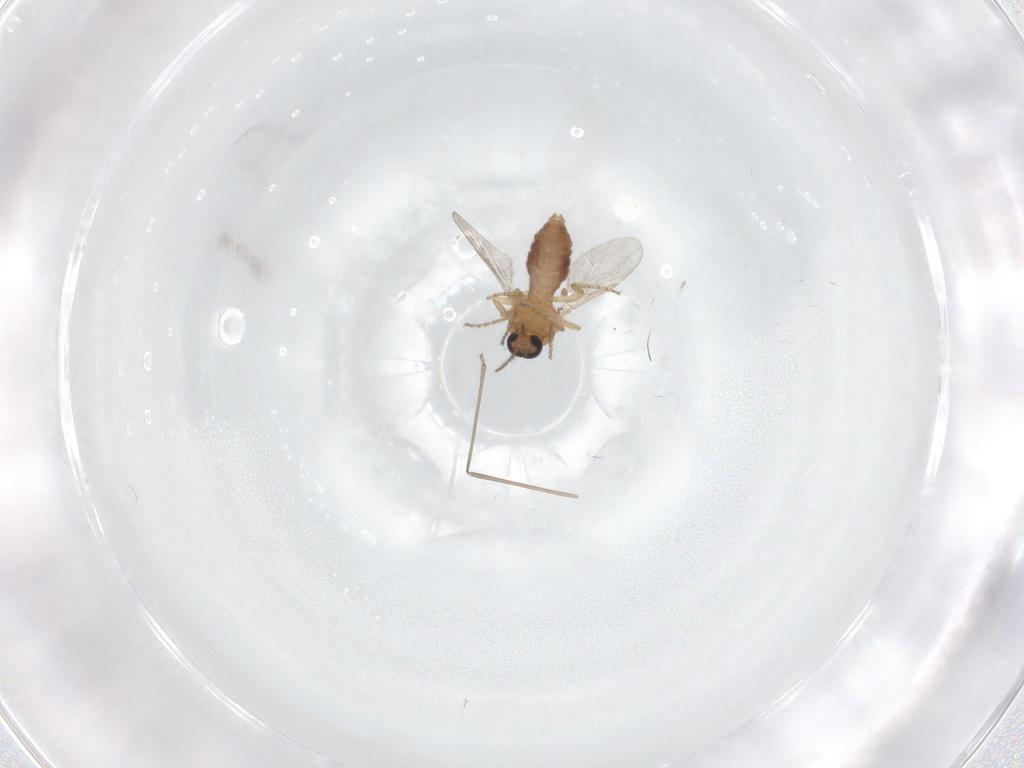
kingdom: Animalia
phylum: Arthropoda
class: Insecta
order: Diptera
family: Ceratopogonidae
